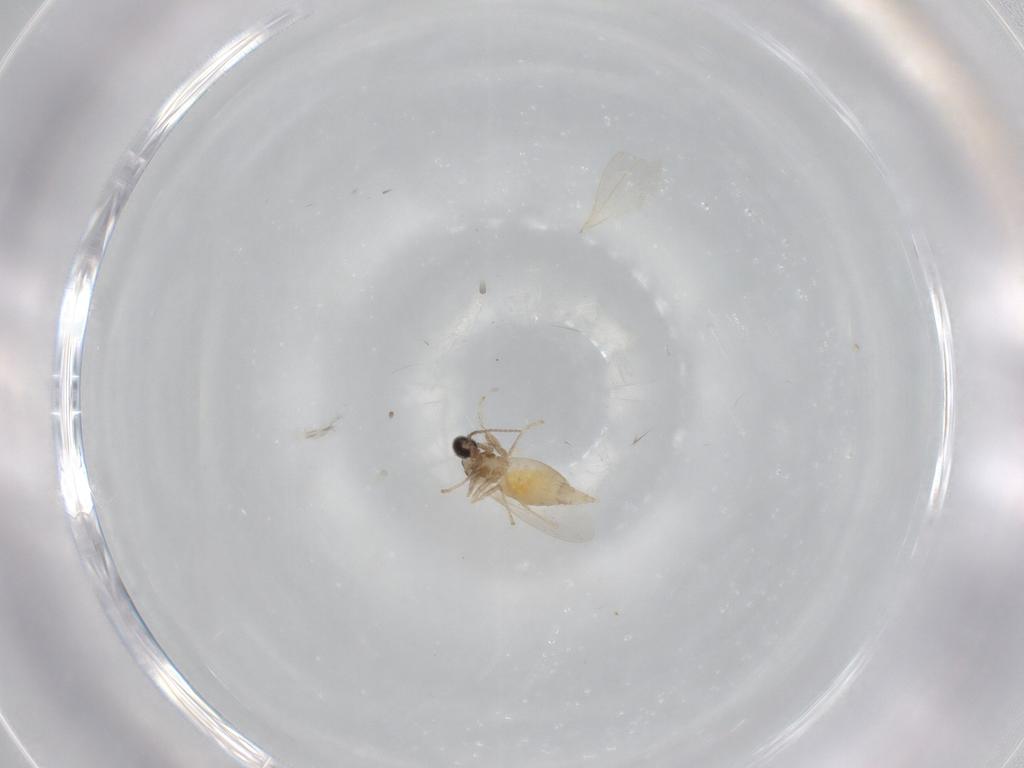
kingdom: Animalia
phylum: Arthropoda
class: Insecta
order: Diptera
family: Cecidomyiidae
